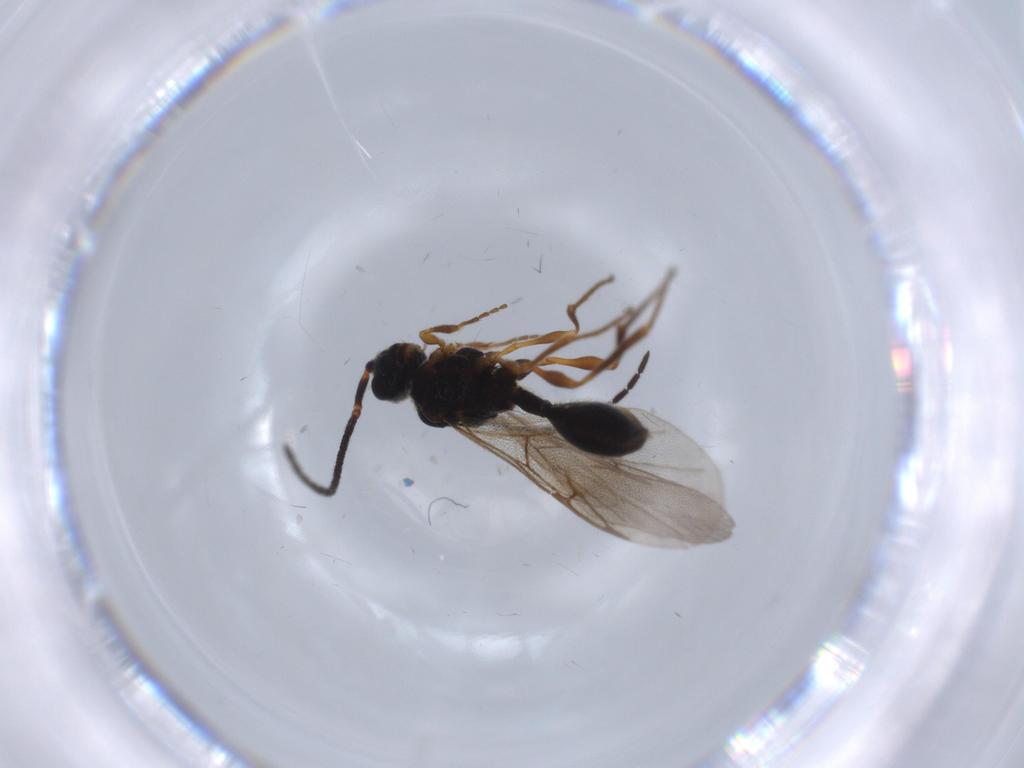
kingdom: Animalia
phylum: Arthropoda
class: Insecta
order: Hymenoptera
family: Diapriidae
